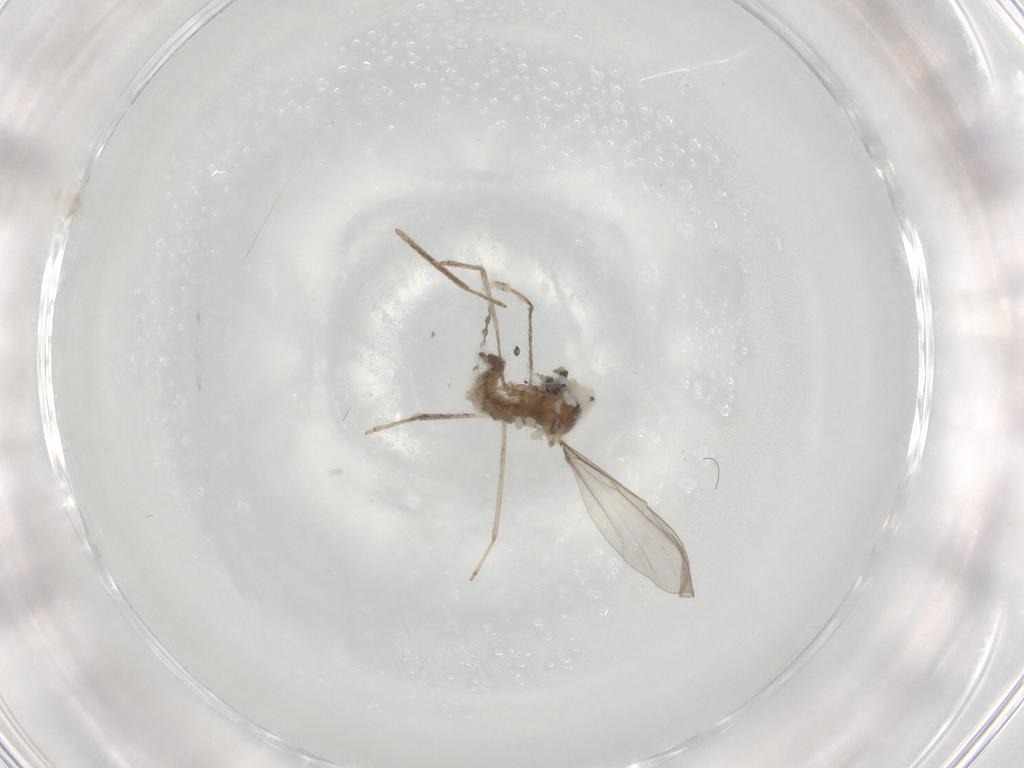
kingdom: Animalia
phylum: Arthropoda
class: Insecta
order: Diptera
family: Cecidomyiidae
